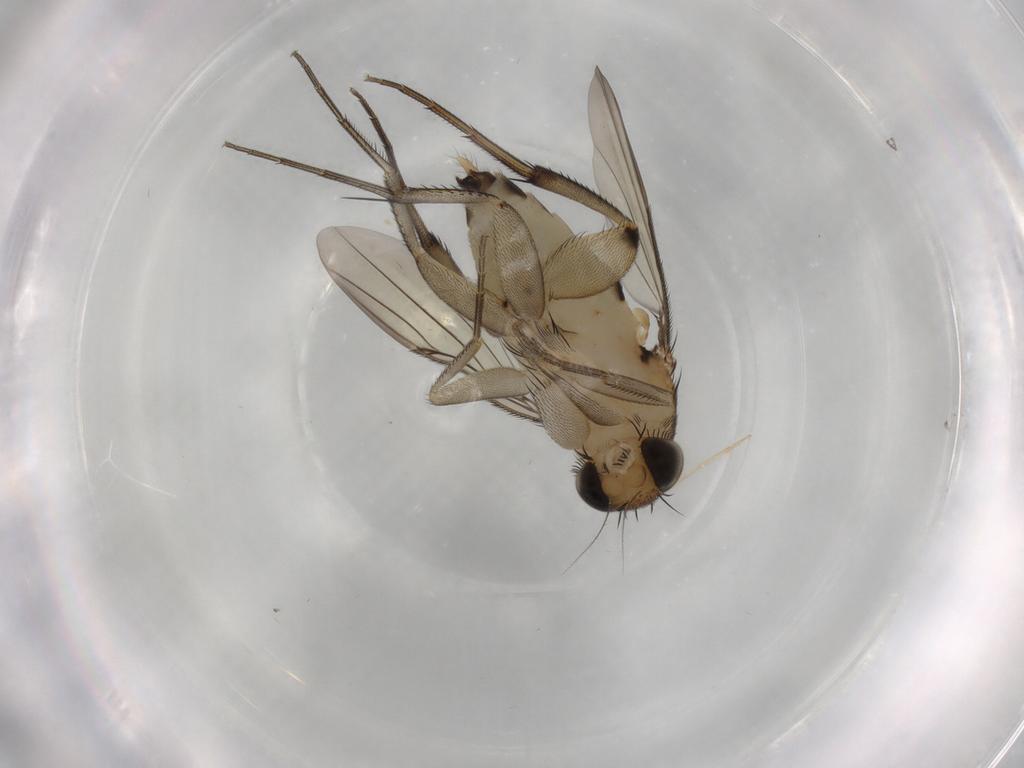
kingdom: Animalia
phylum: Arthropoda
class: Insecta
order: Diptera
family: Phoridae
